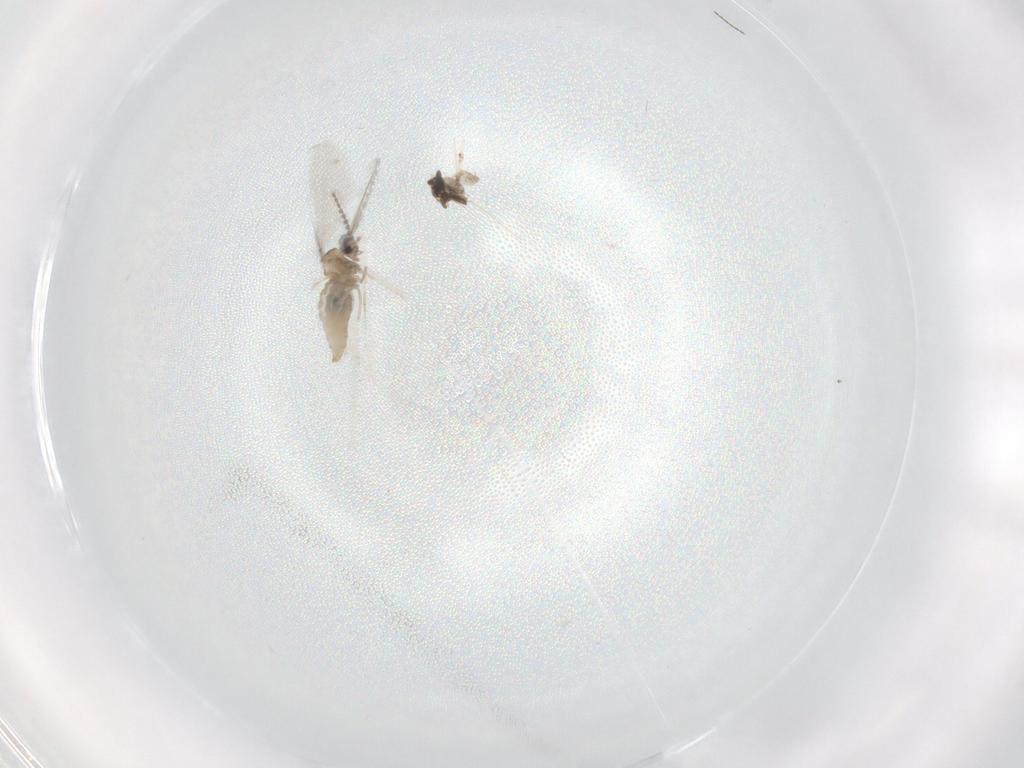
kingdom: Animalia
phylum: Arthropoda
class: Insecta
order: Diptera
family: Cecidomyiidae
